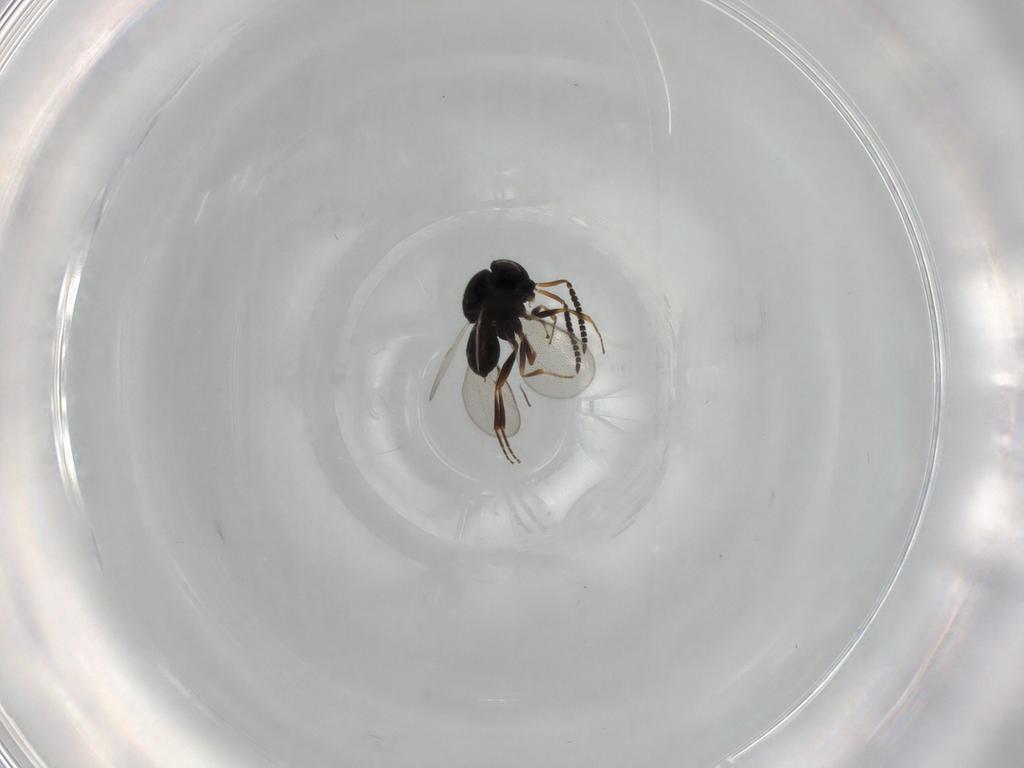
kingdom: Animalia
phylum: Arthropoda
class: Insecta
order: Hymenoptera
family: Scelionidae
